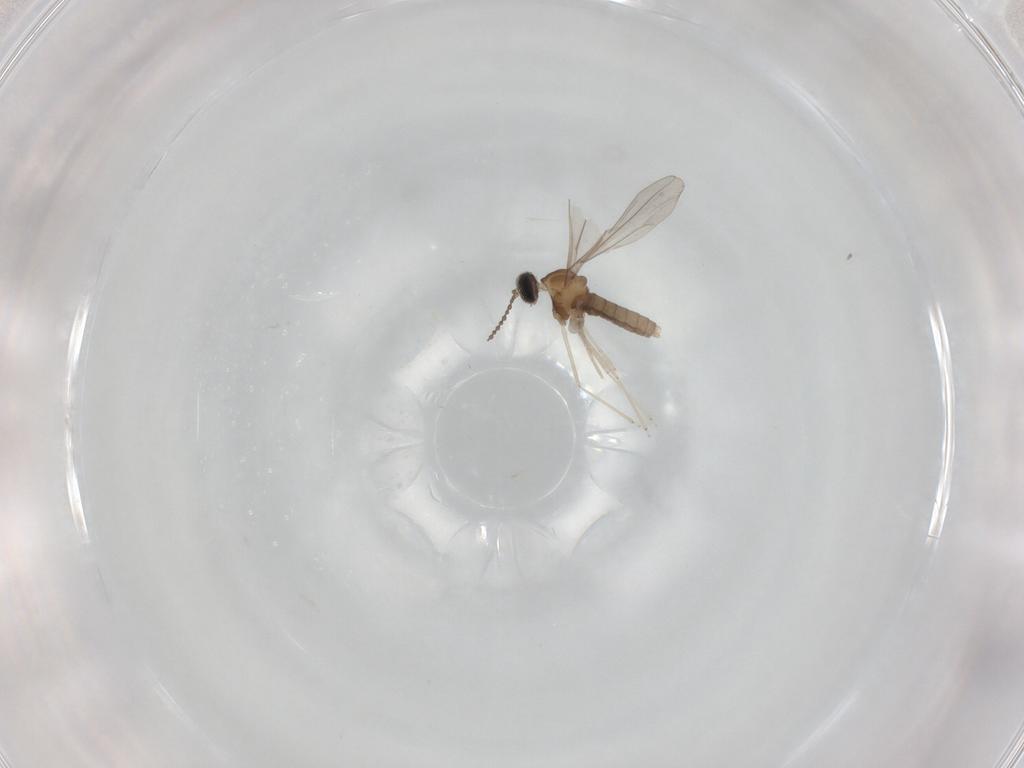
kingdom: Animalia
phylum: Arthropoda
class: Insecta
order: Diptera
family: Cecidomyiidae
